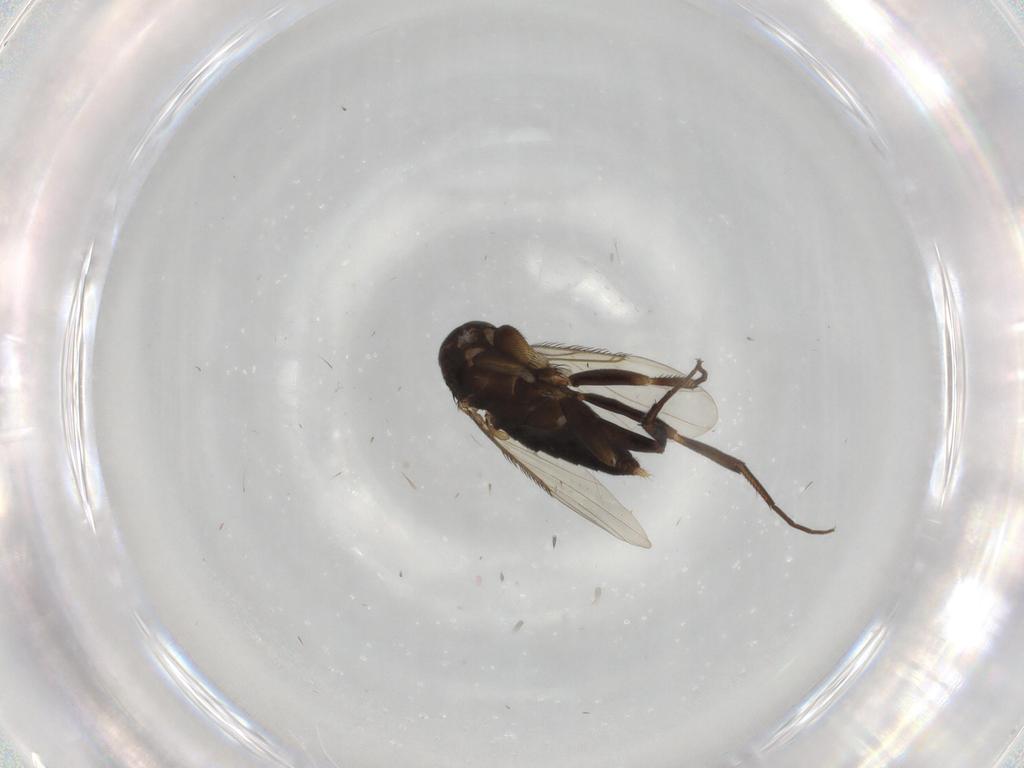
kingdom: Animalia
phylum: Arthropoda
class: Insecta
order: Diptera
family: Phoridae
